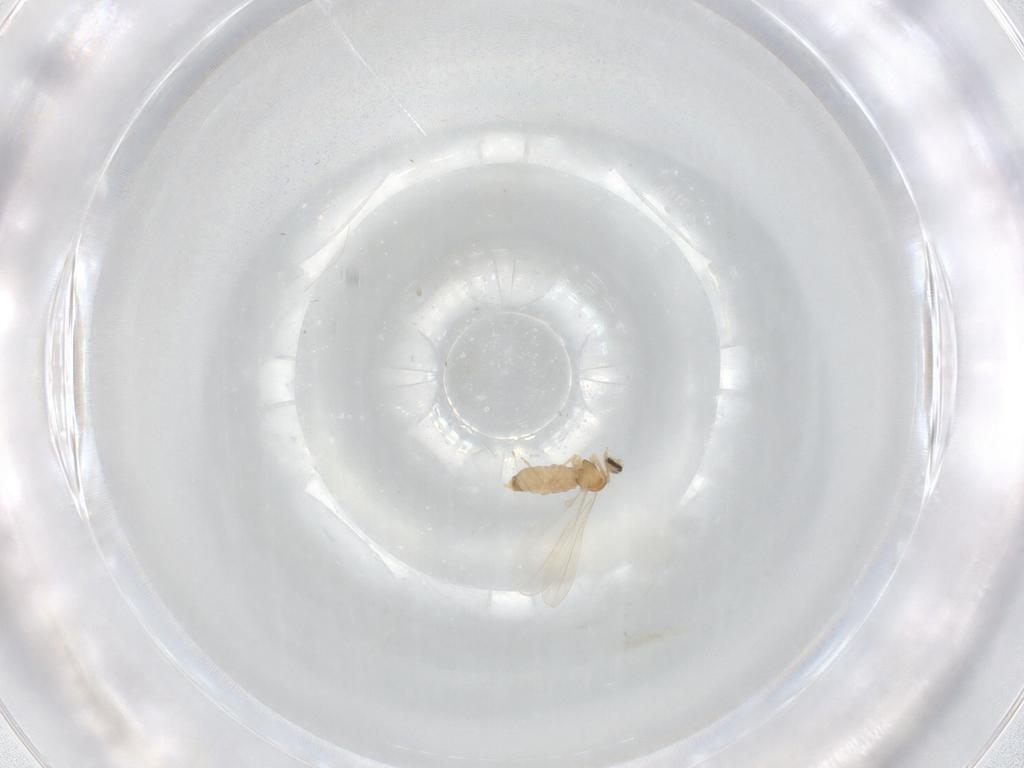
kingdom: Animalia
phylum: Arthropoda
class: Insecta
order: Diptera
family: Cecidomyiidae
